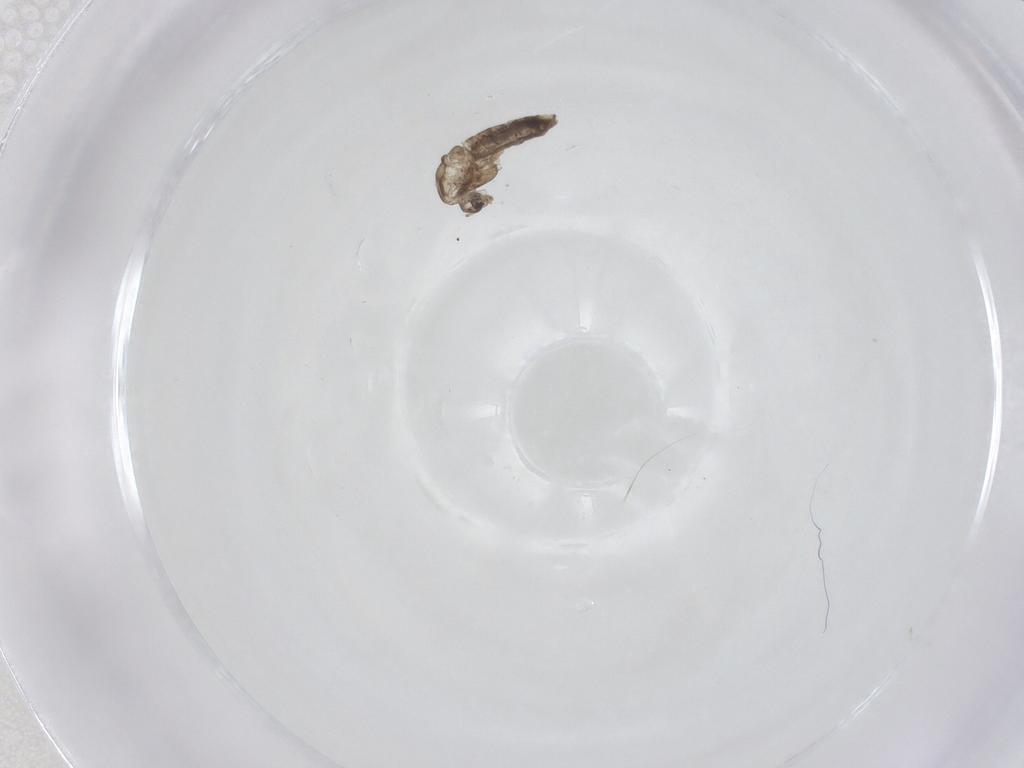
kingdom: Animalia
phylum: Arthropoda
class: Insecta
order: Diptera
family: Chironomidae
